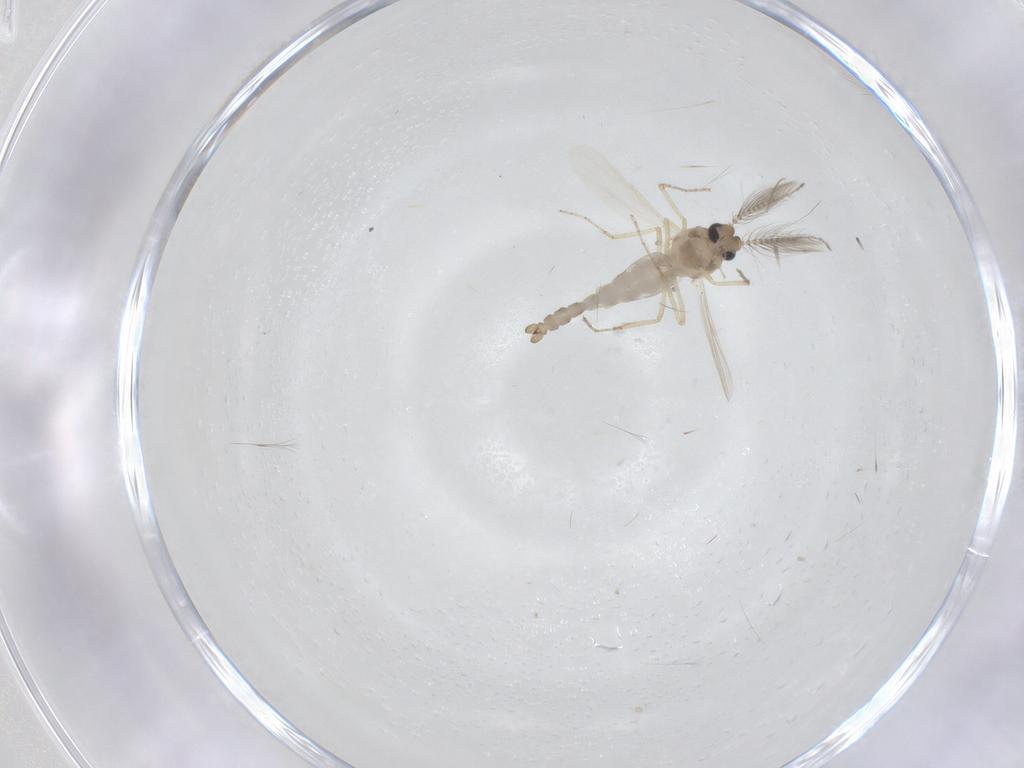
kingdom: Animalia
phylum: Arthropoda
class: Insecta
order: Diptera
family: Ceratopogonidae
